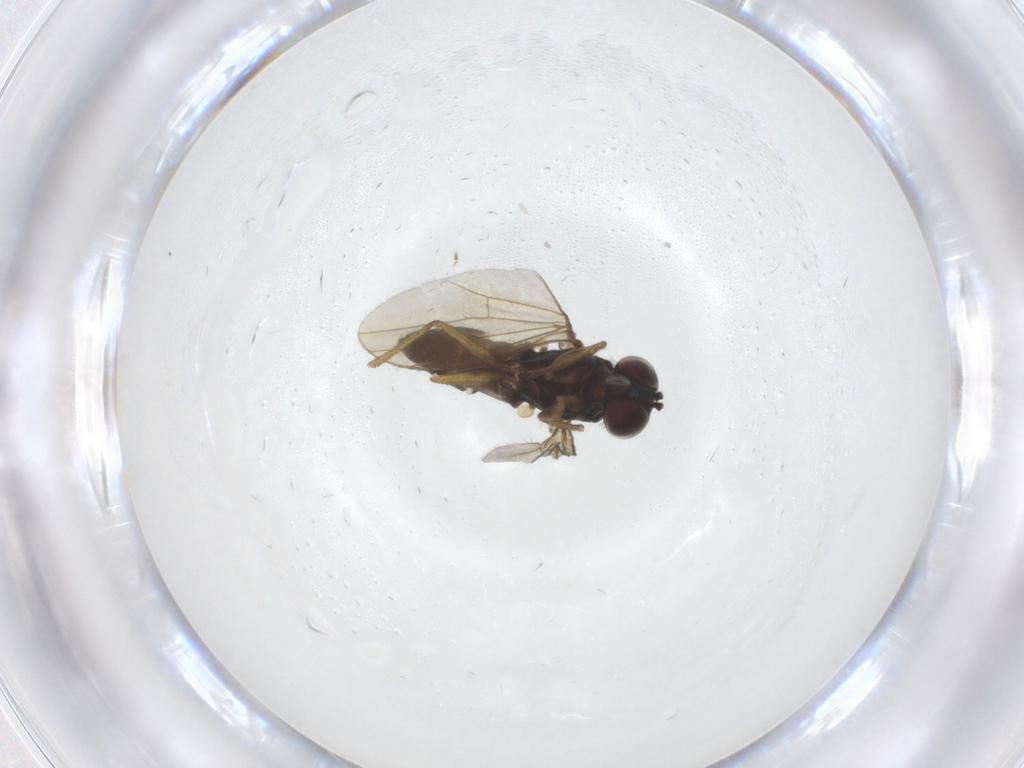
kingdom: Animalia
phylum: Arthropoda
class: Insecta
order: Diptera
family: Dolichopodidae
